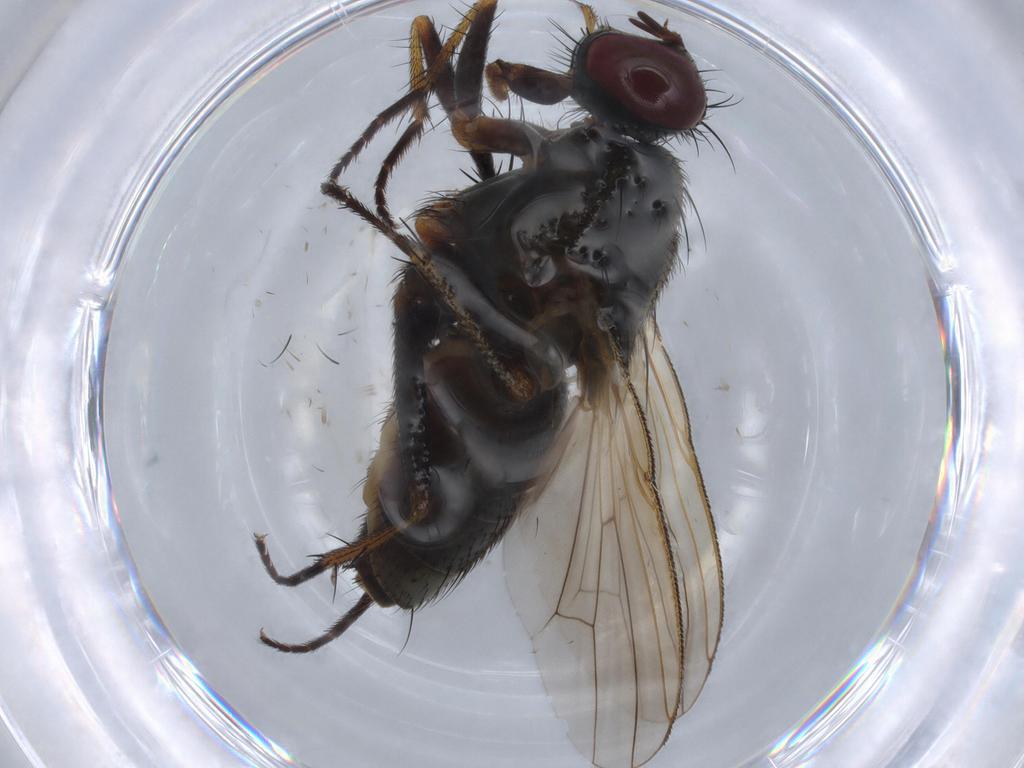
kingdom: Animalia
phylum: Arthropoda
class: Insecta
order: Diptera
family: Muscidae
